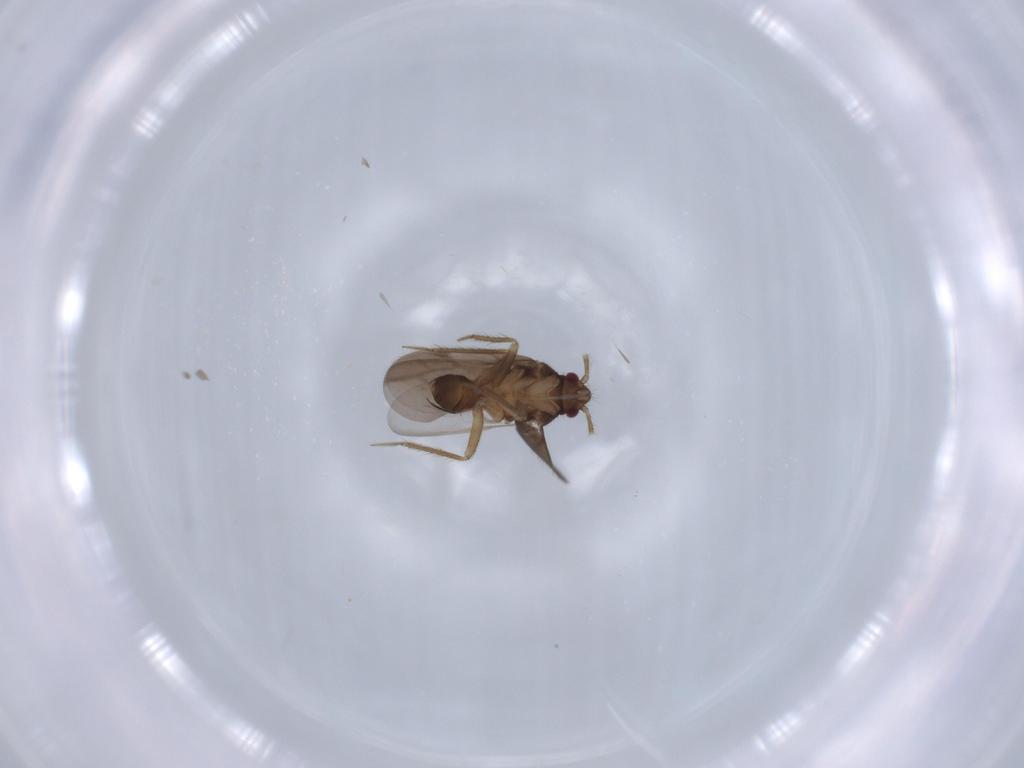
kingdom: Animalia
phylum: Arthropoda
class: Insecta
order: Hemiptera
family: Ceratocombidae
